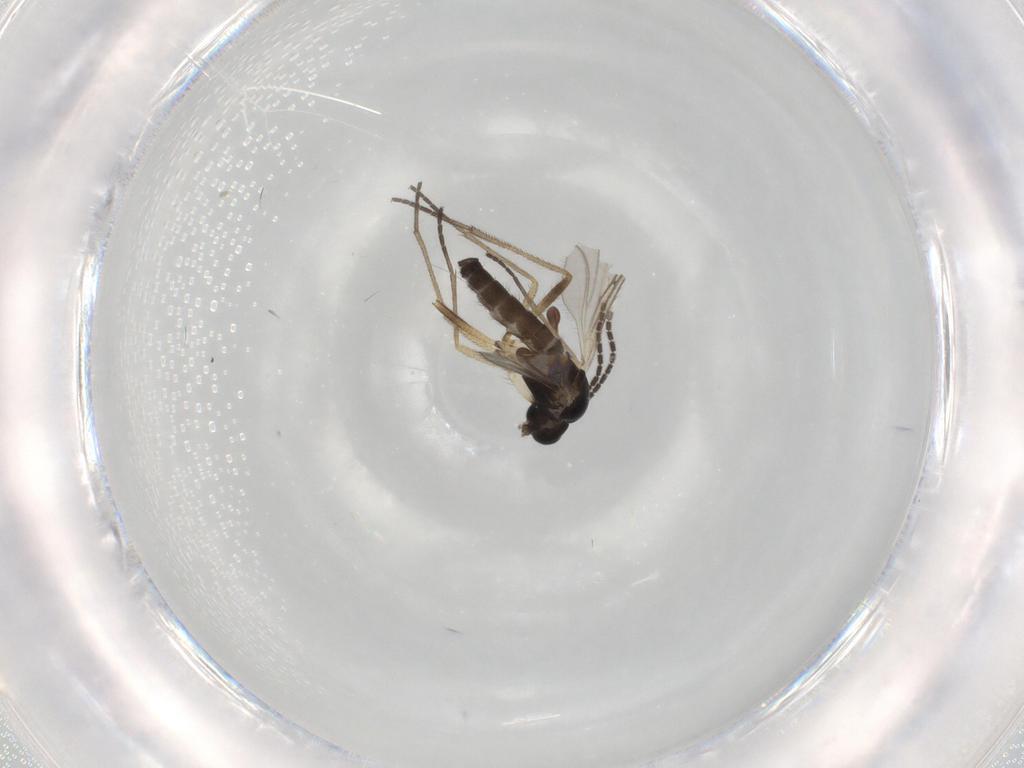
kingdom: Animalia
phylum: Arthropoda
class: Insecta
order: Diptera
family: Sciaridae
